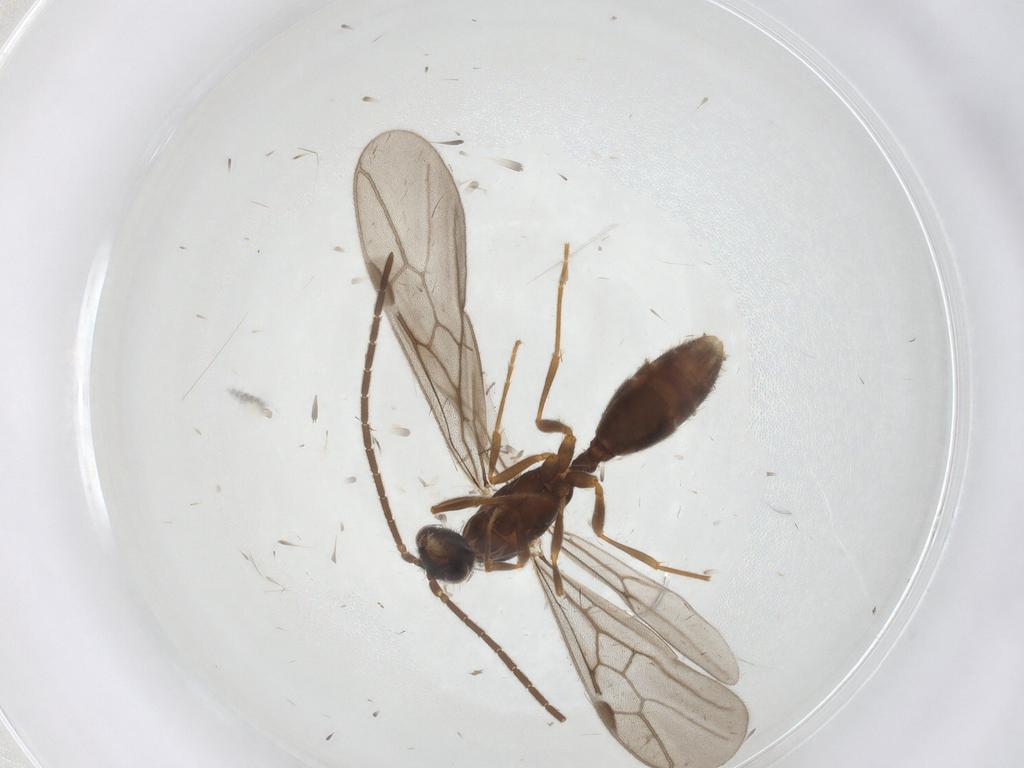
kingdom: Animalia
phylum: Arthropoda
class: Insecta
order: Hymenoptera
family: Formicidae
